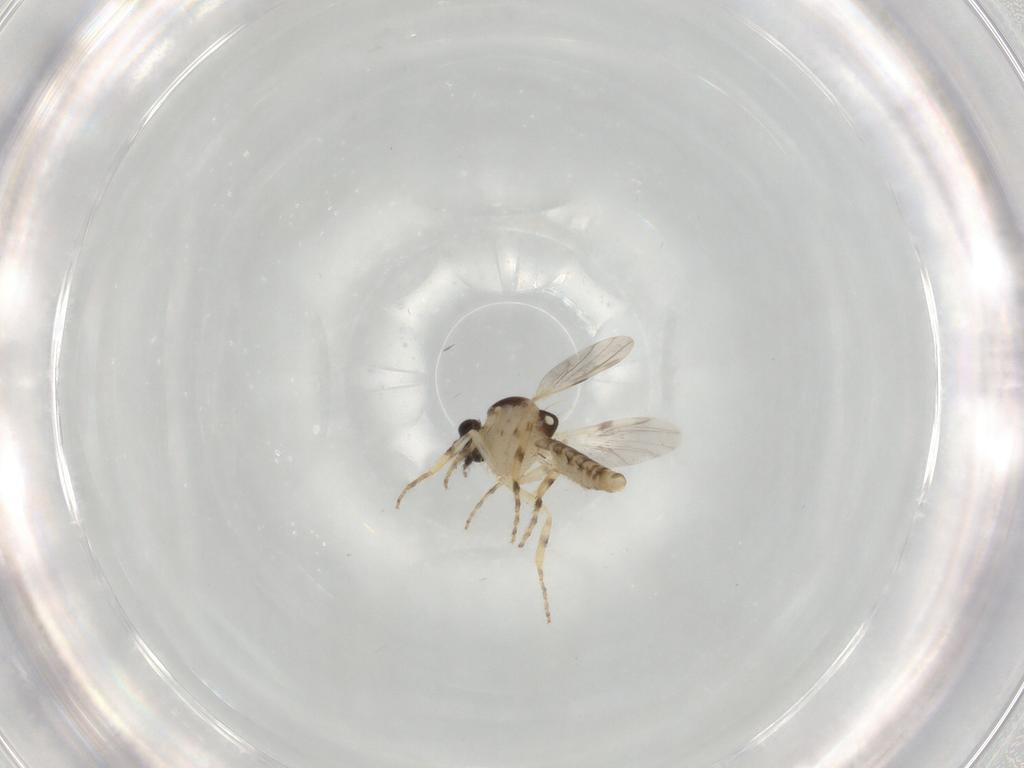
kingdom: Animalia
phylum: Arthropoda
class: Insecta
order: Diptera
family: Ceratopogonidae
